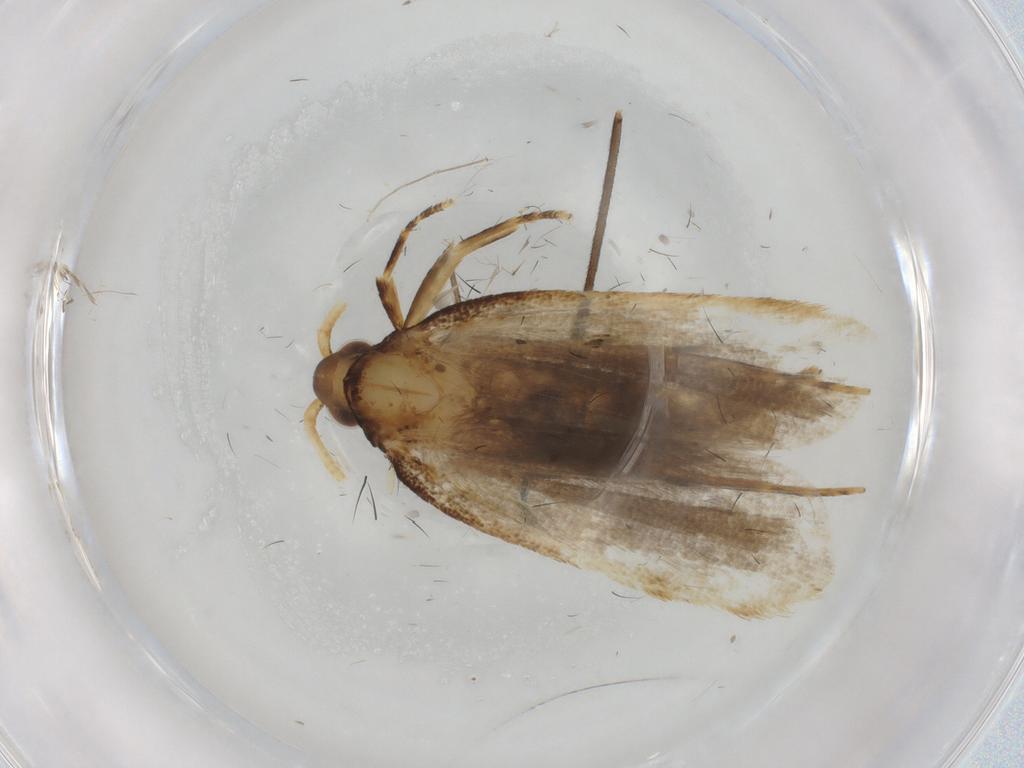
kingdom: Animalia
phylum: Arthropoda
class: Insecta
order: Lepidoptera
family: Lecithoceridae
